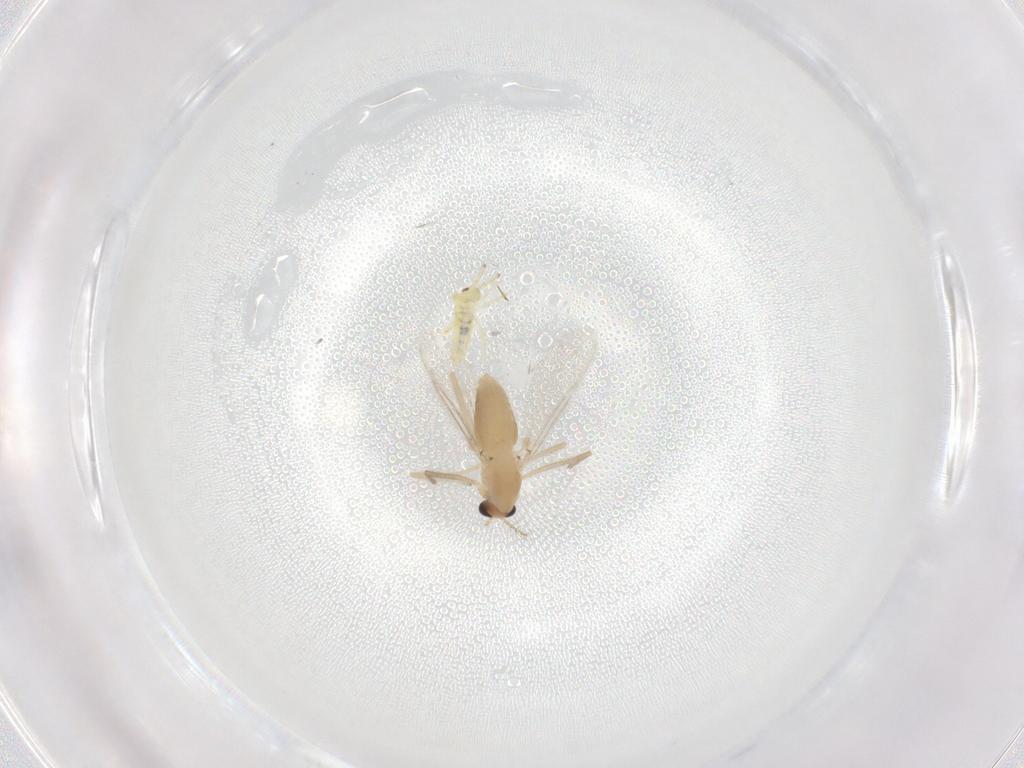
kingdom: Animalia
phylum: Arthropoda
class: Insecta
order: Diptera
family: Chironomidae
